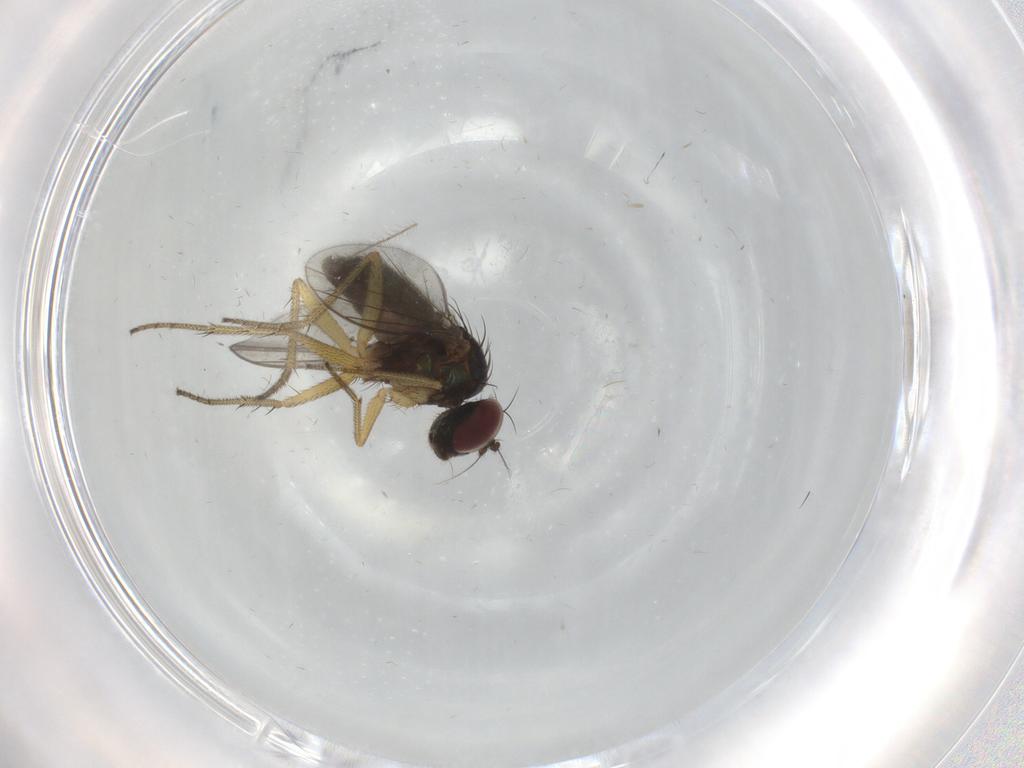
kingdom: Animalia
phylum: Arthropoda
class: Insecta
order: Diptera
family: Dolichopodidae
